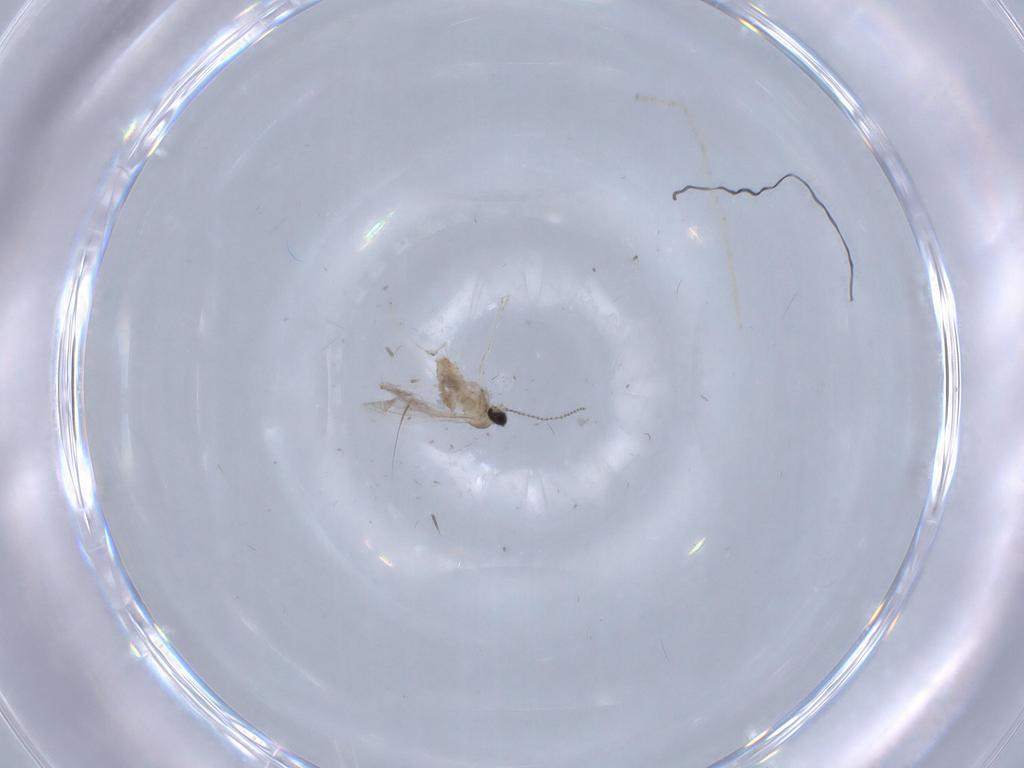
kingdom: Animalia
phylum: Arthropoda
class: Insecta
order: Diptera
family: Cecidomyiidae
